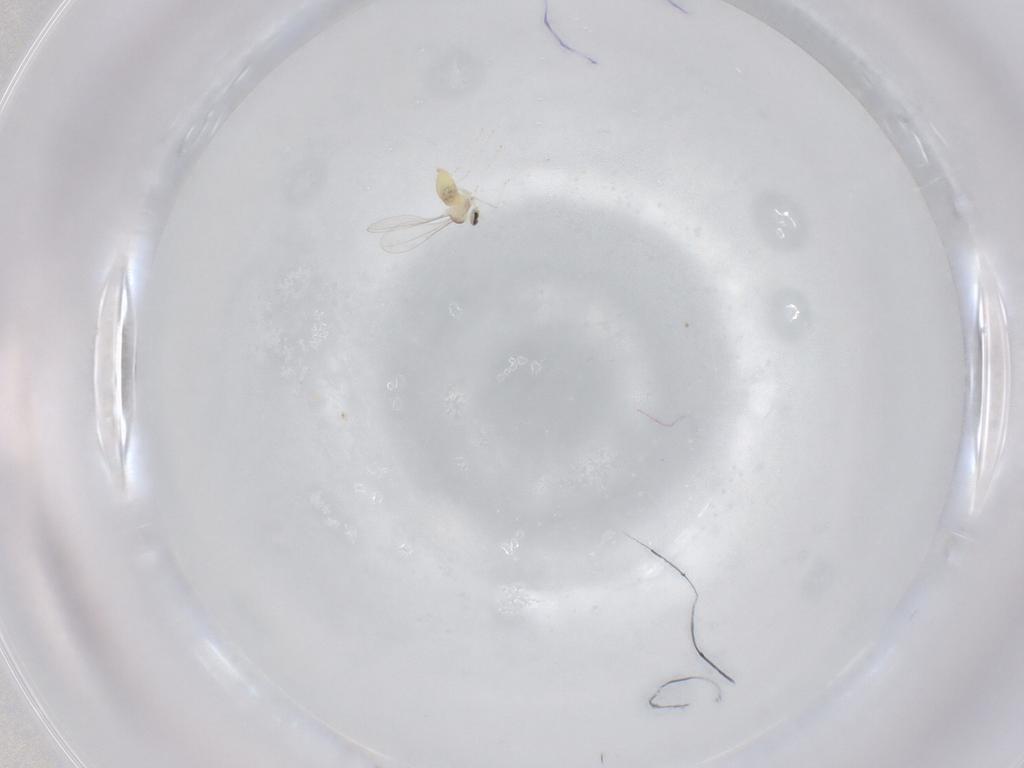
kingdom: Animalia
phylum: Arthropoda
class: Insecta
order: Diptera
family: Cecidomyiidae
